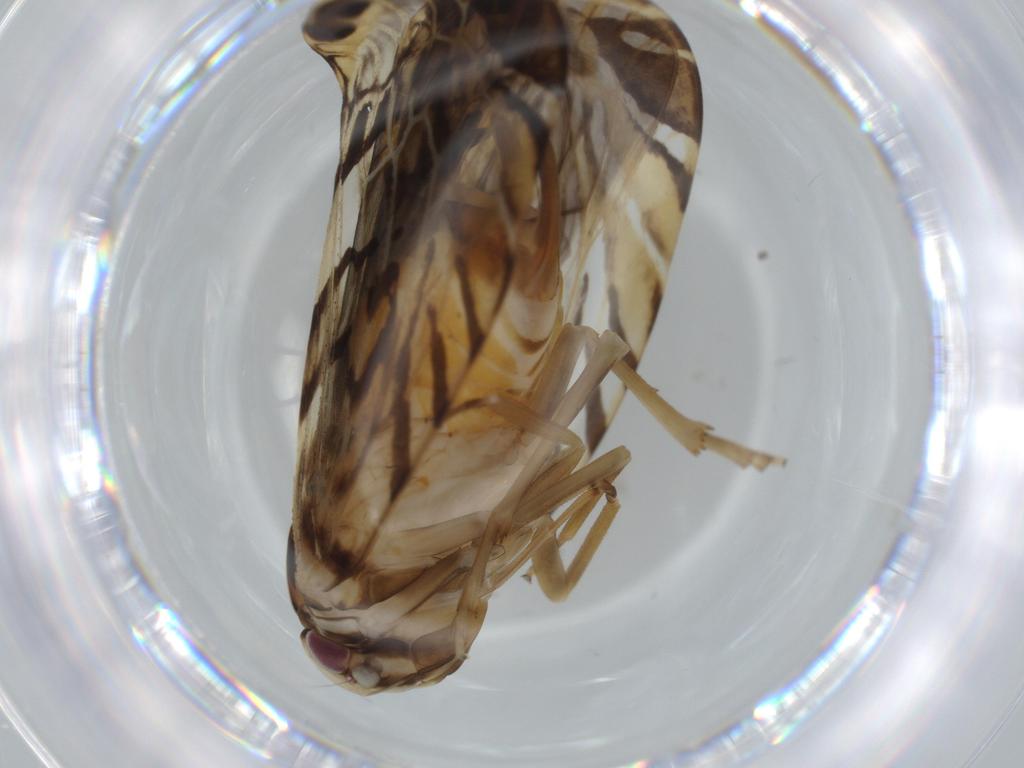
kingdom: Animalia
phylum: Arthropoda
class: Insecta
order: Hemiptera
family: Cixiidae
